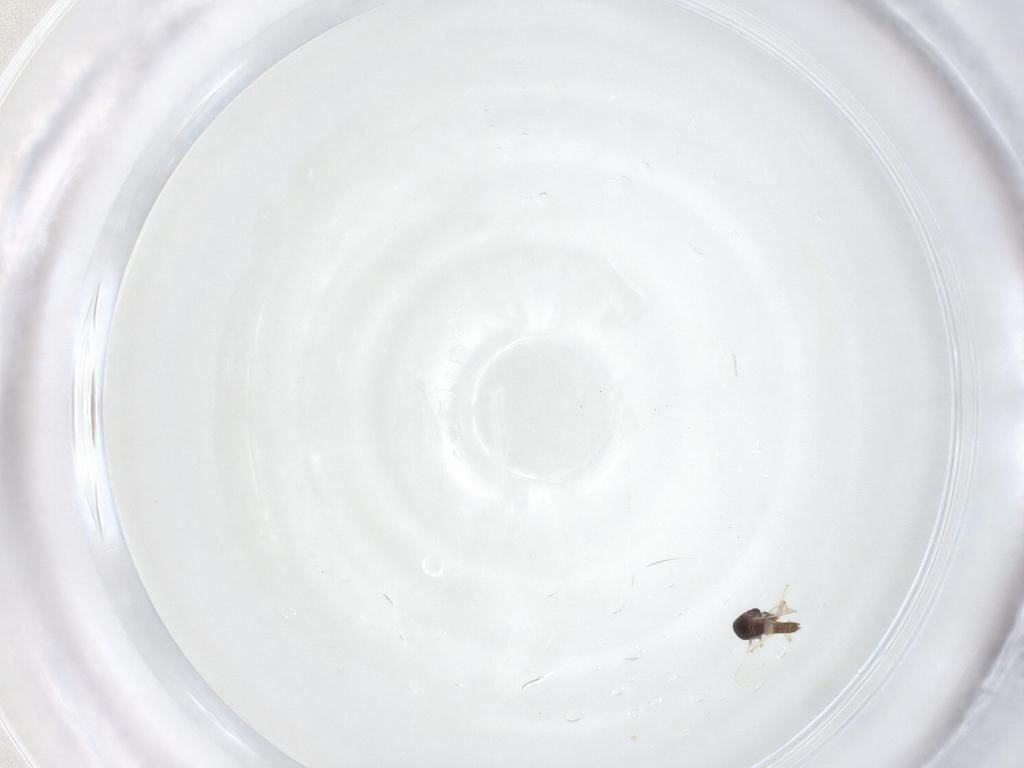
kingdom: Animalia
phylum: Arthropoda
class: Insecta
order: Diptera
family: Chironomidae
